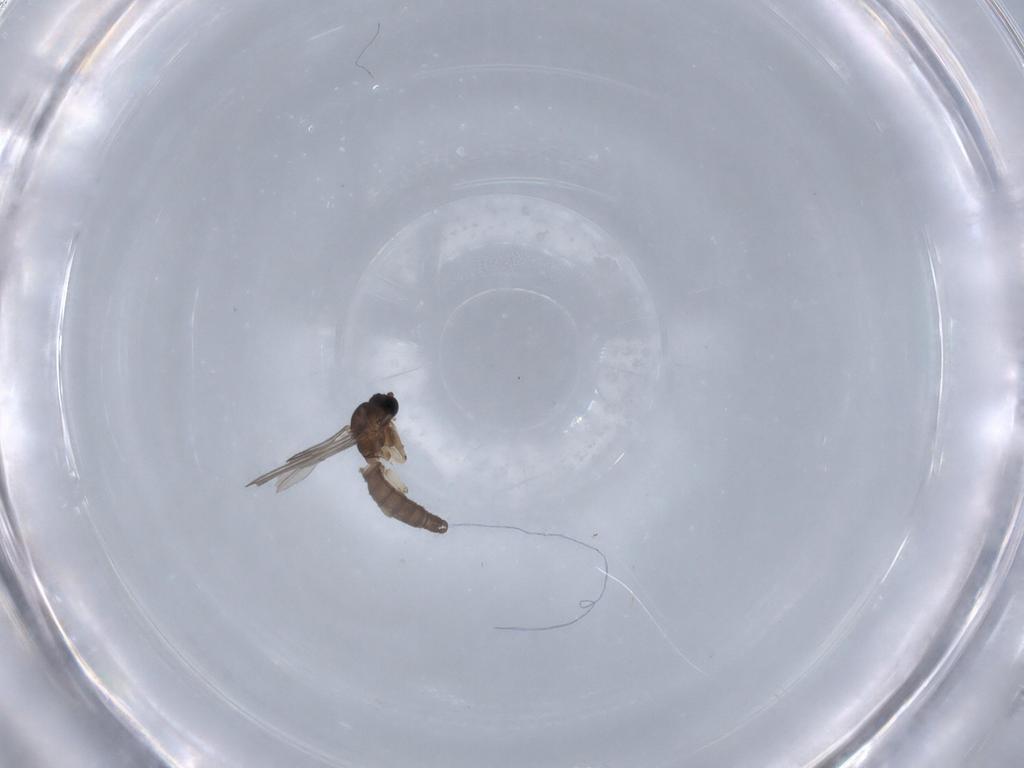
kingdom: Animalia
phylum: Arthropoda
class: Insecta
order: Diptera
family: Sciaridae
